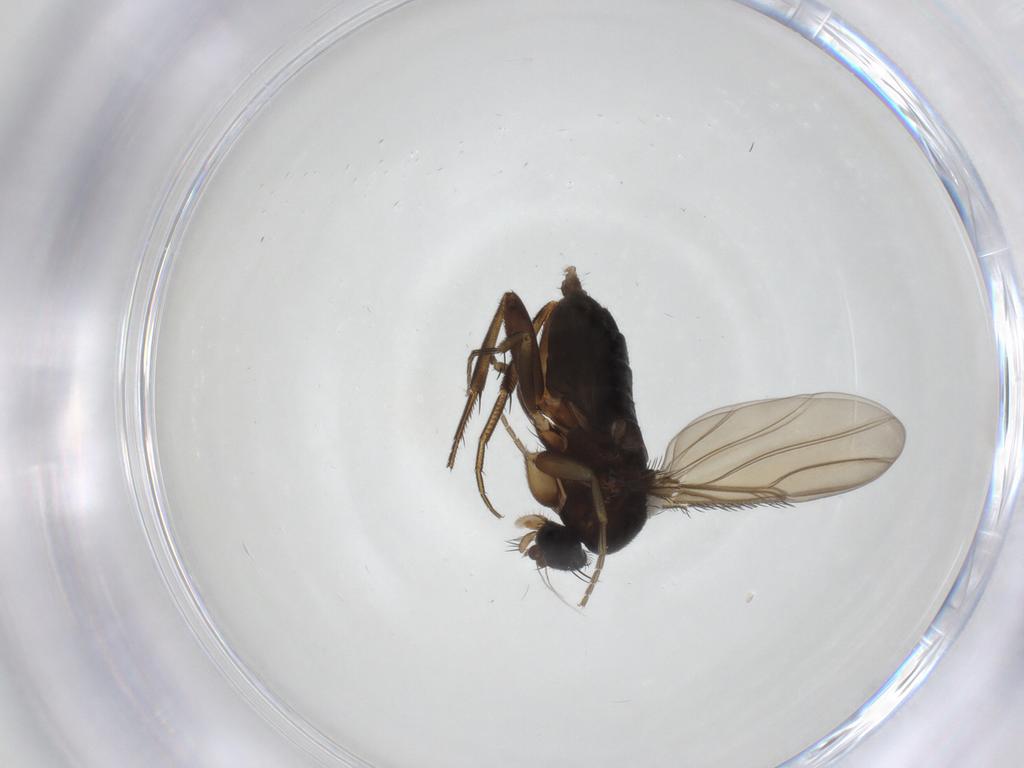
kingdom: Animalia
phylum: Arthropoda
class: Insecta
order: Diptera
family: Phoridae
